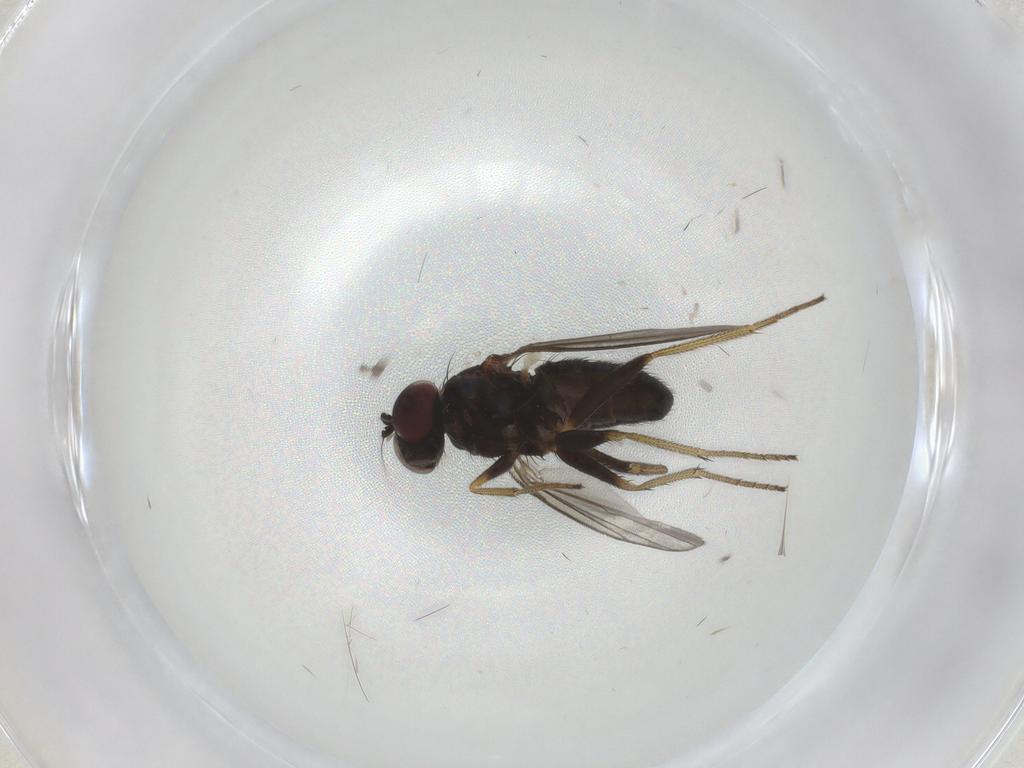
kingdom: Animalia
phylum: Arthropoda
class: Insecta
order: Diptera
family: Dolichopodidae
